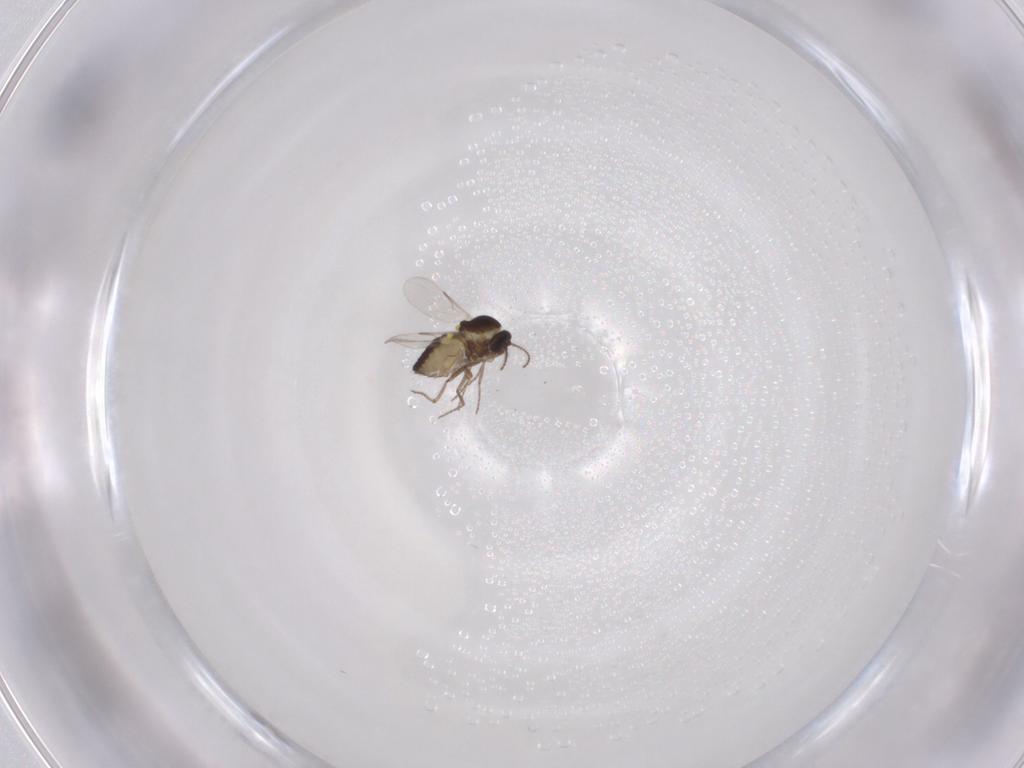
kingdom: Animalia
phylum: Arthropoda
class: Insecta
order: Diptera
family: Ceratopogonidae
